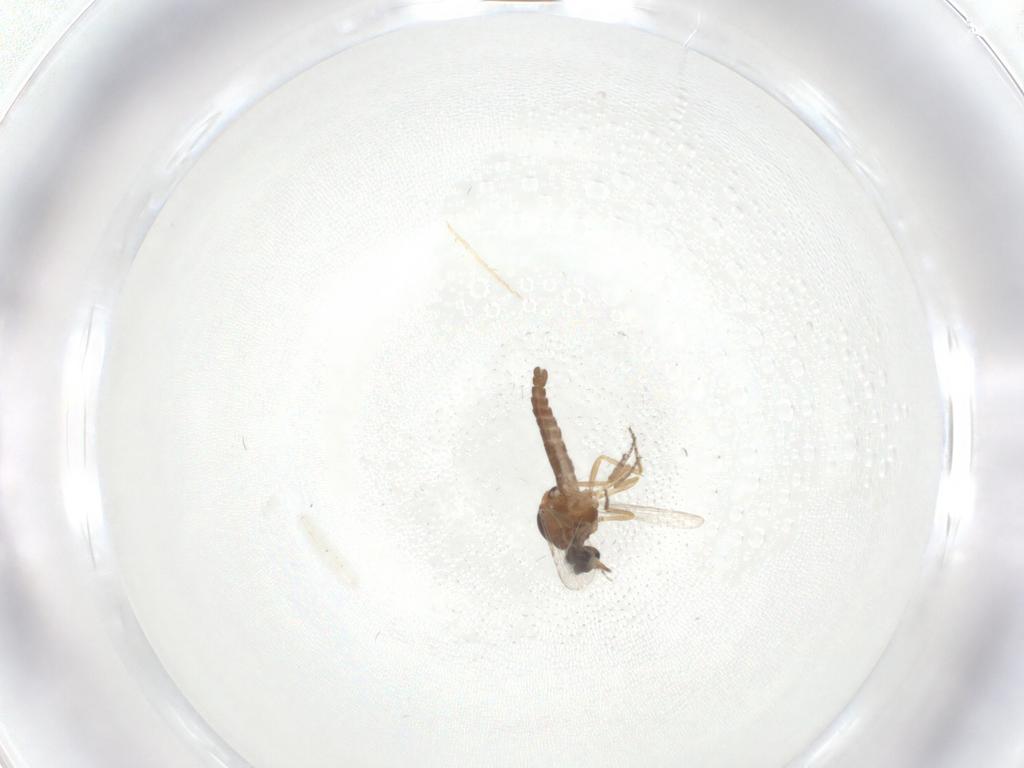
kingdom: Animalia
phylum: Arthropoda
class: Insecta
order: Diptera
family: Ceratopogonidae
